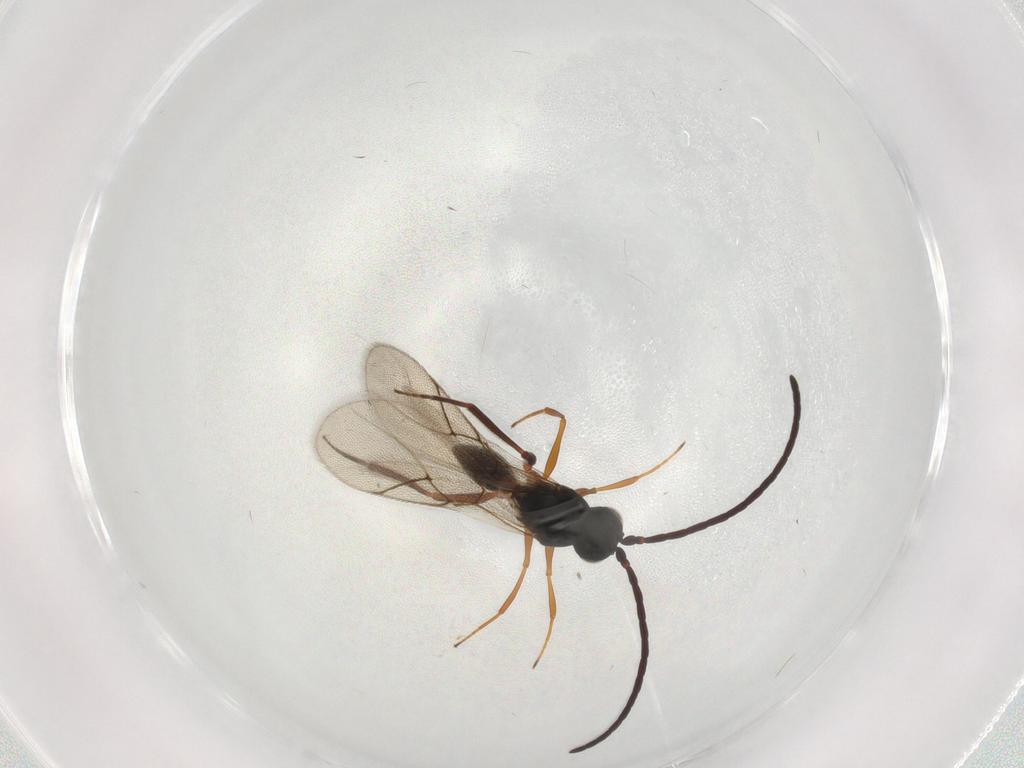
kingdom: Animalia
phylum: Arthropoda
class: Insecta
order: Hymenoptera
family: Figitidae
